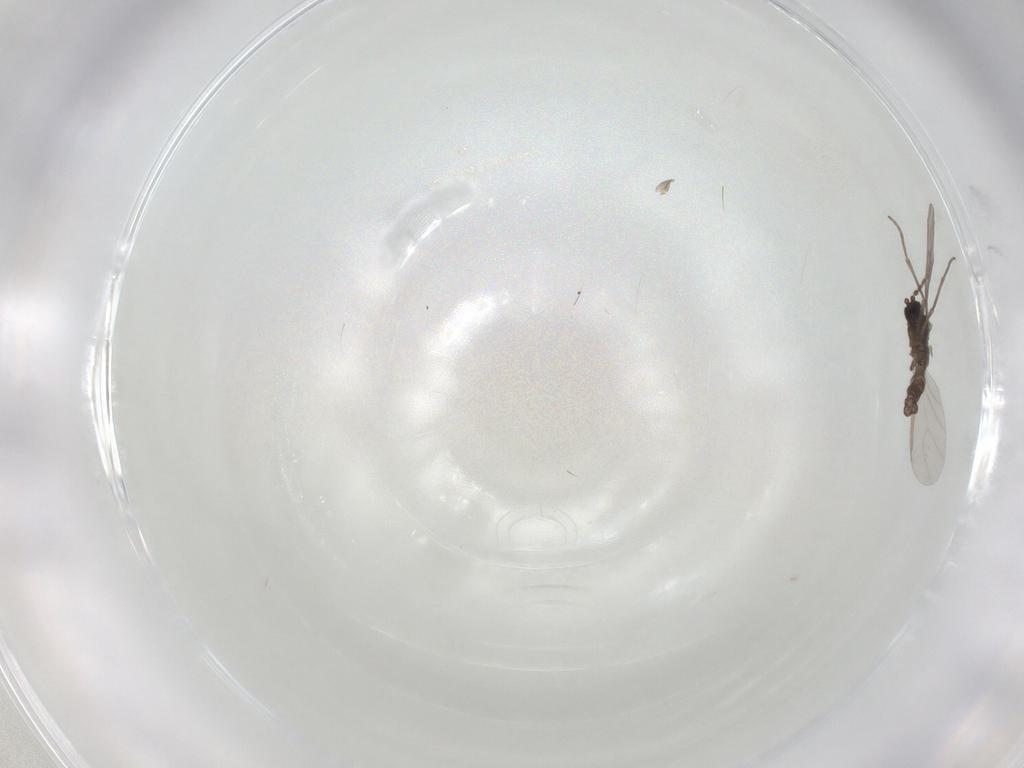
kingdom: Animalia
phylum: Arthropoda
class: Insecta
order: Diptera
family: Sciaridae
